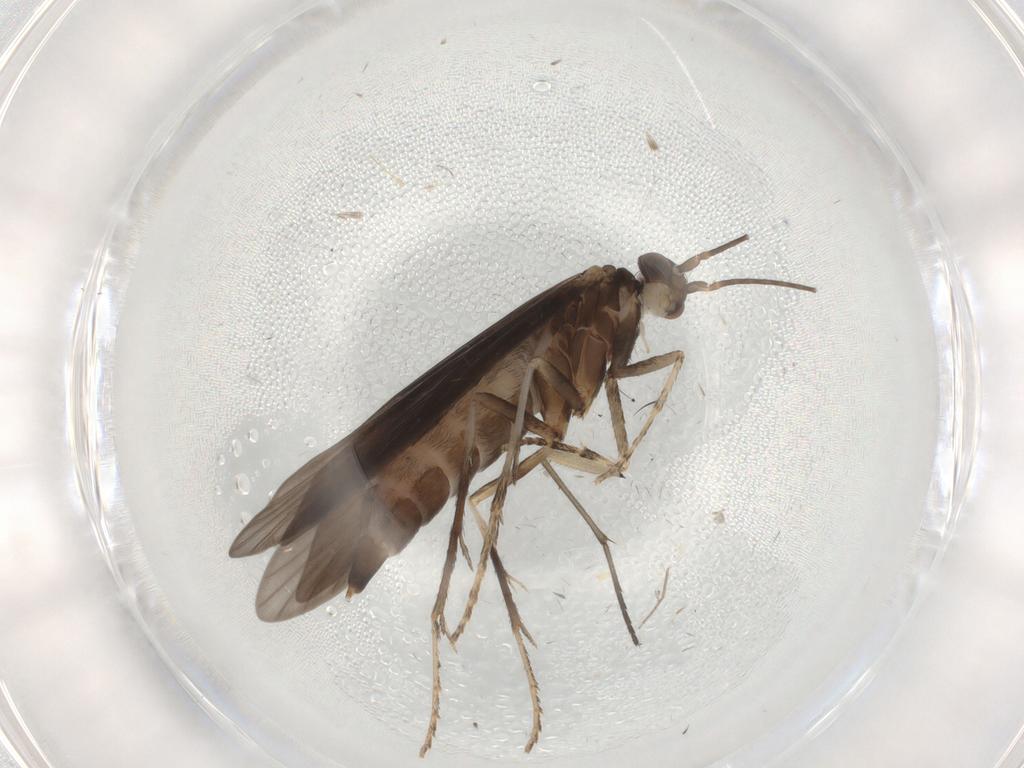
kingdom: Animalia
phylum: Arthropoda
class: Insecta
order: Trichoptera
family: Xiphocentronidae
